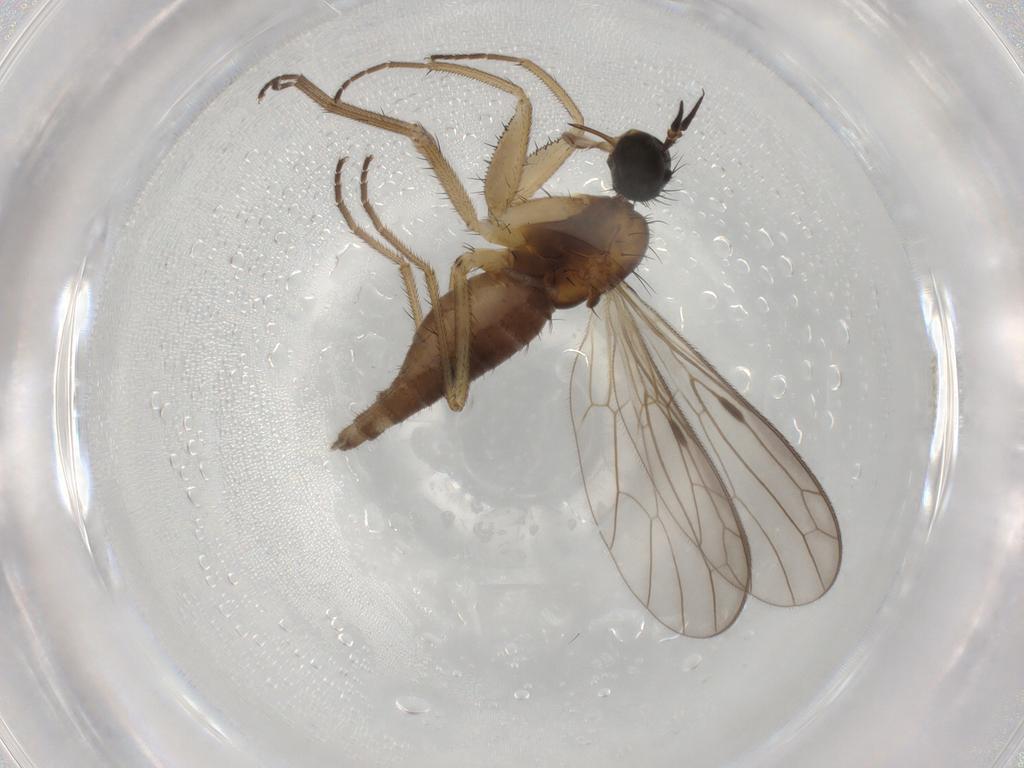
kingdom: Animalia
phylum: Arthropoda
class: Insecta
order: Diptera
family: Ceratopogonidae
